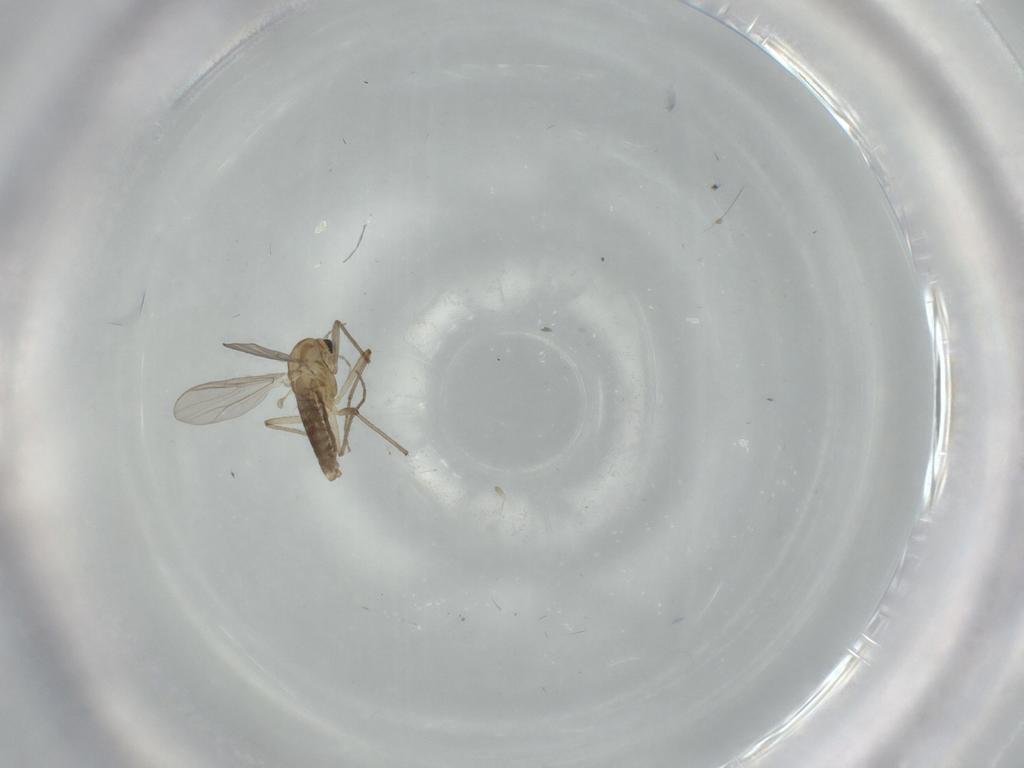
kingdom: Animalia
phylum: Arthropoda
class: Insecta
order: Diptera
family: Chironomidae
